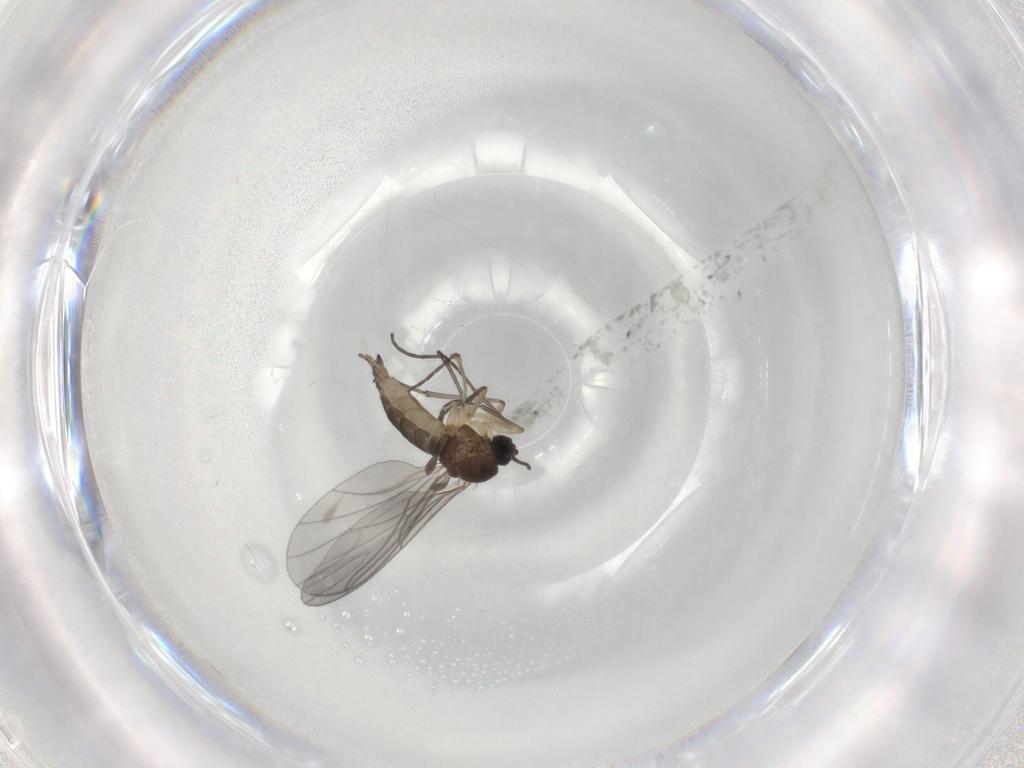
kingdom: Animalia
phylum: Arthropoda
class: Insecta
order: Diptera
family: Sciaridae
